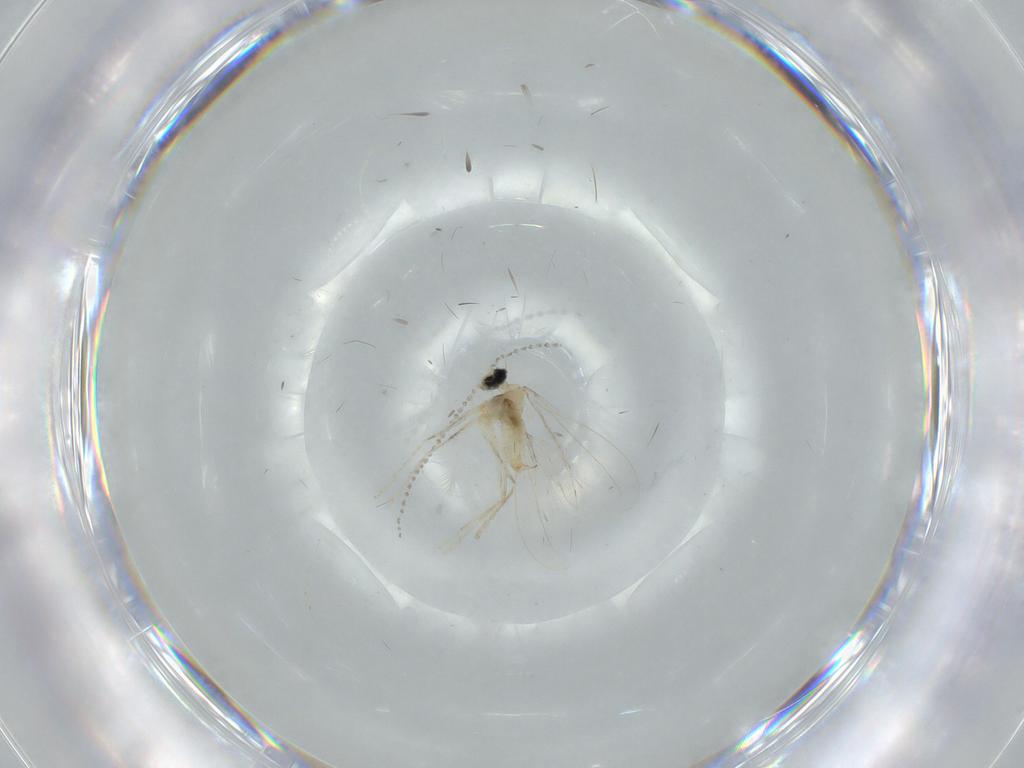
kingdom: Animalia
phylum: Arthropoda
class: Insecta
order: Diptera
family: Cecidomyiidae
